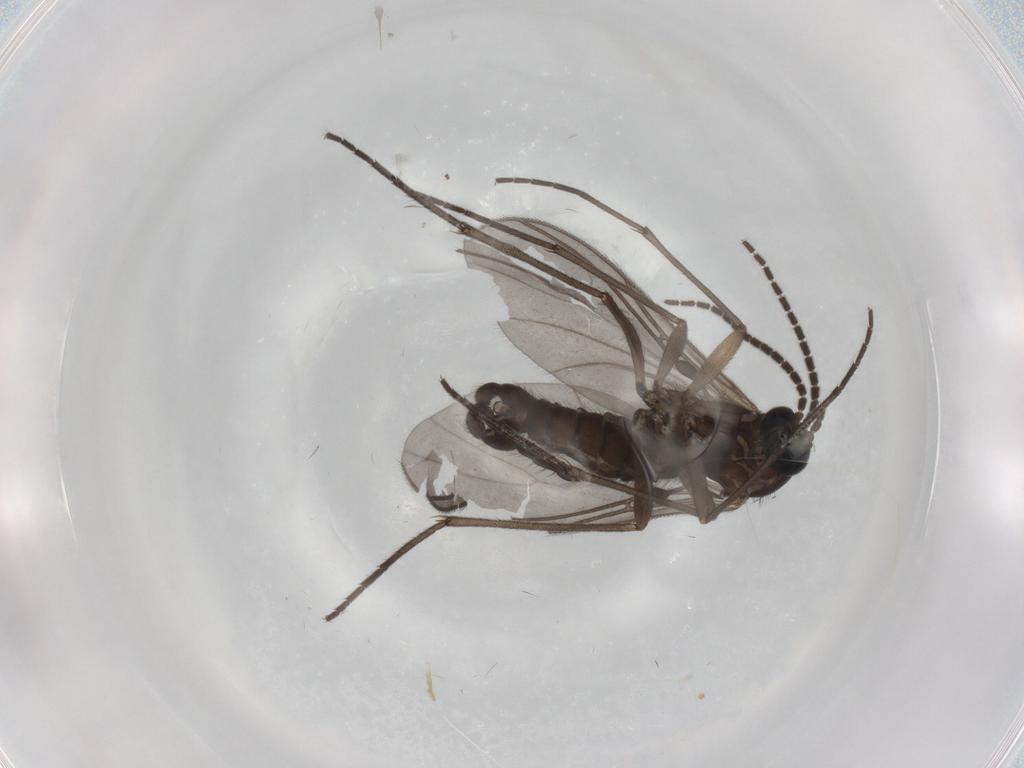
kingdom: Animalia
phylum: Arthropoda
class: Insecta
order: Diptera
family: Sciaridae
